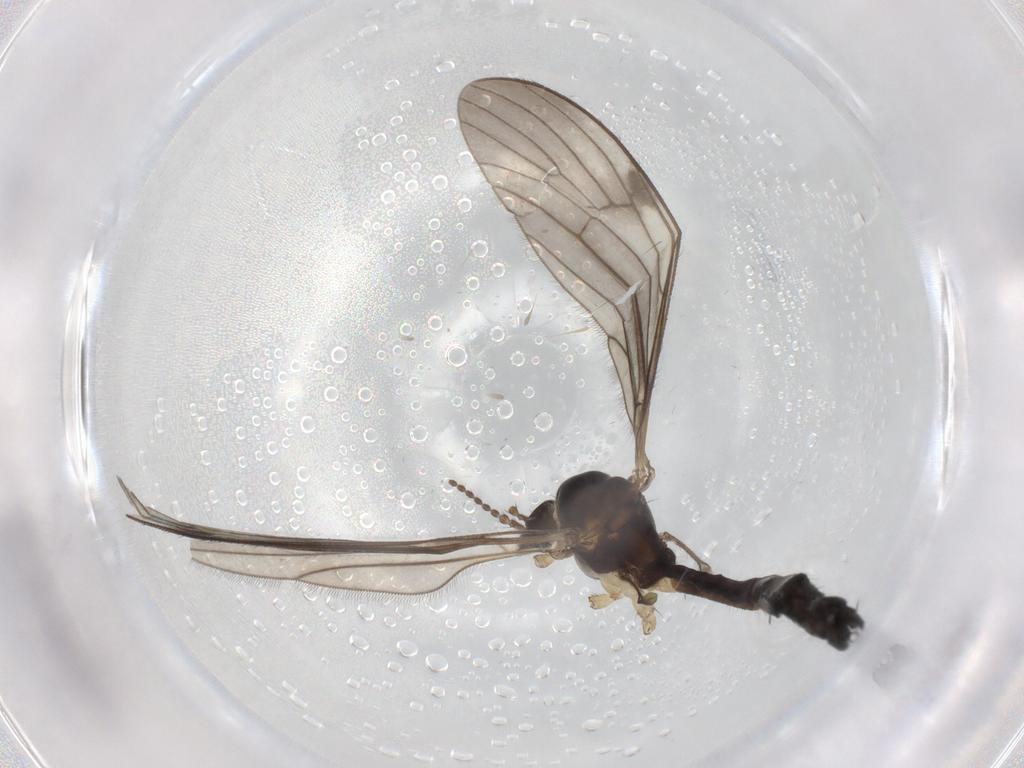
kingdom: Animalia
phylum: Arthropoda
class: Insecta
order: Diptera
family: Limoniidae
